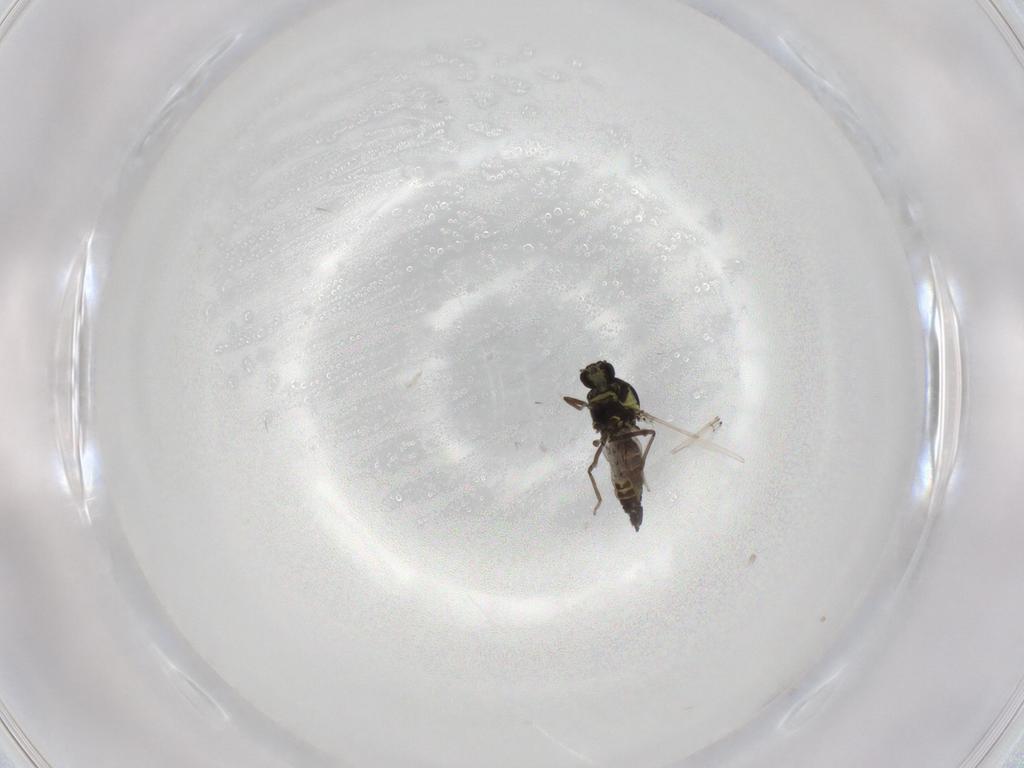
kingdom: Animalia
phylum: Arthropoda
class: Insecta
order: Diptera
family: Ceratopogonidae
